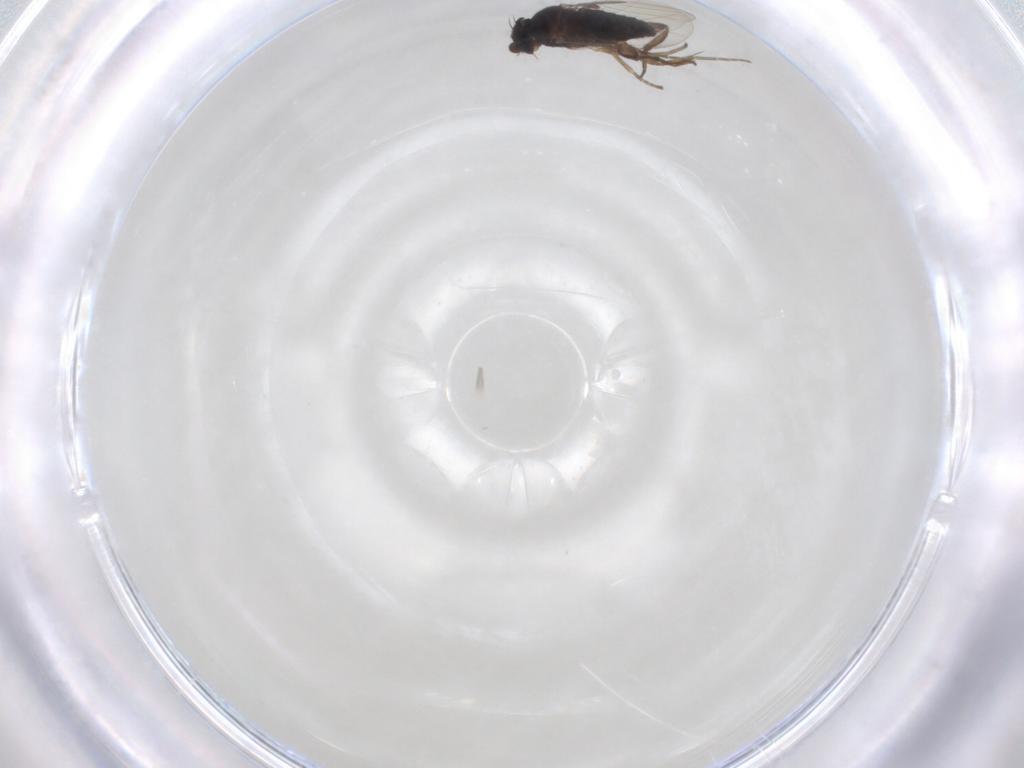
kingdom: Animalia
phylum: Arthropoda
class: Insecta
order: Diptera
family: Phoridae
